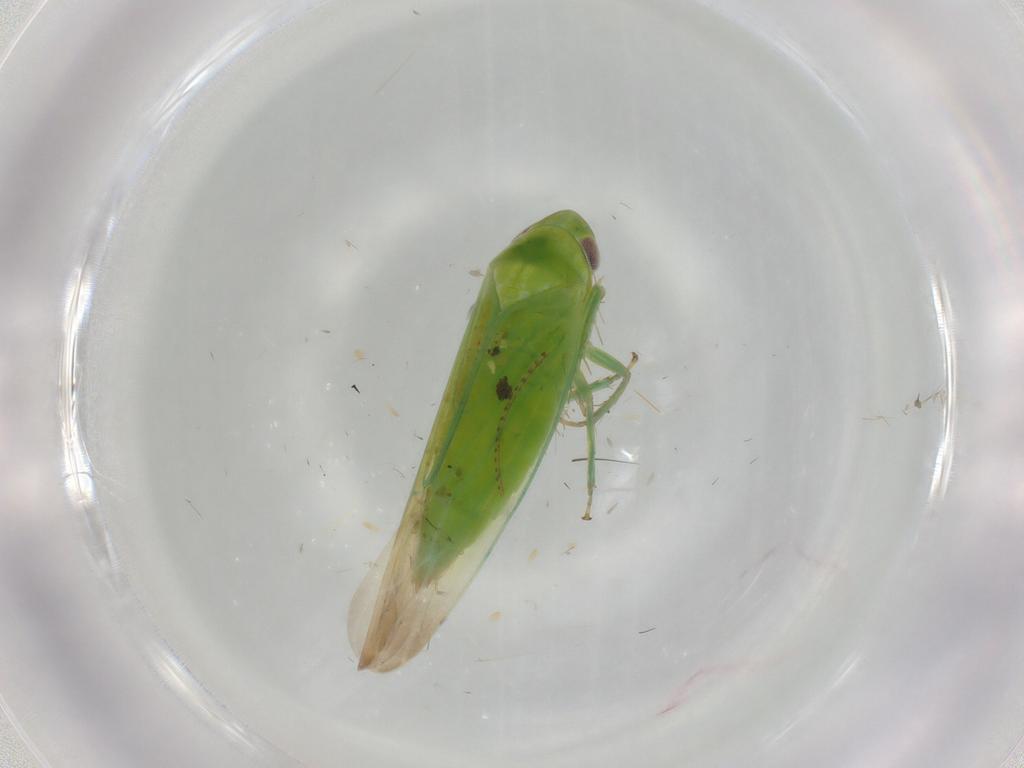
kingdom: Animalia
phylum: Arthropoda
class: Insecta
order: Hemiptera
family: Cicadellidae
